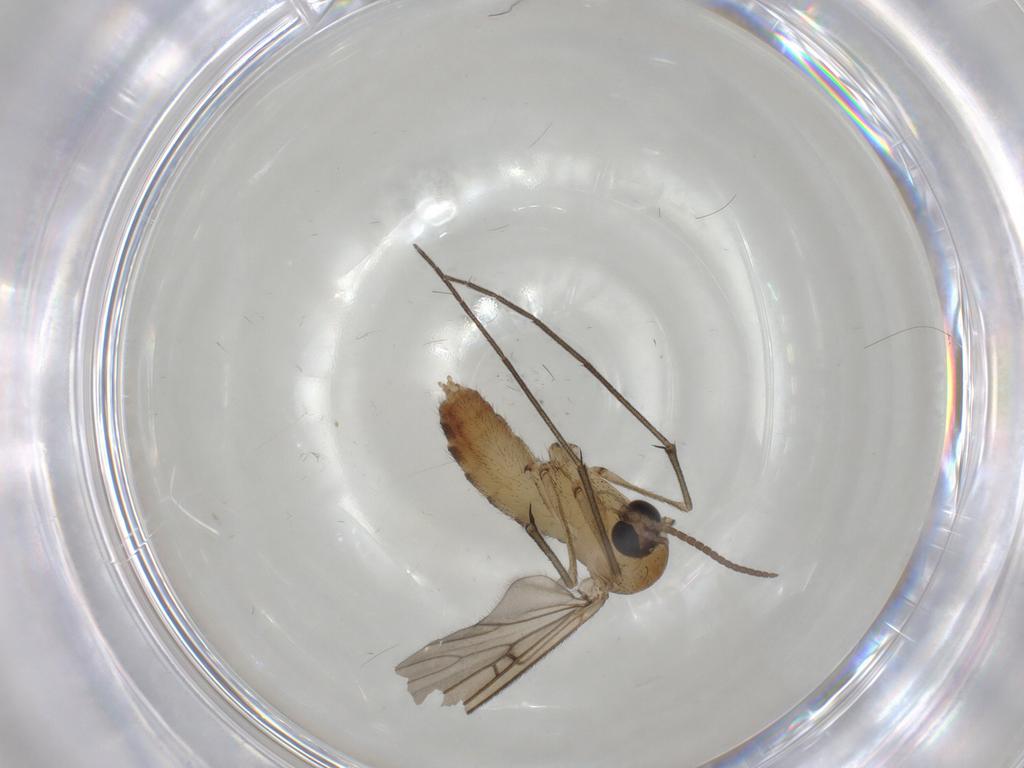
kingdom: Animalia
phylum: Arthropoda
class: Insecta
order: Diptera
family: Mycetophilidae
